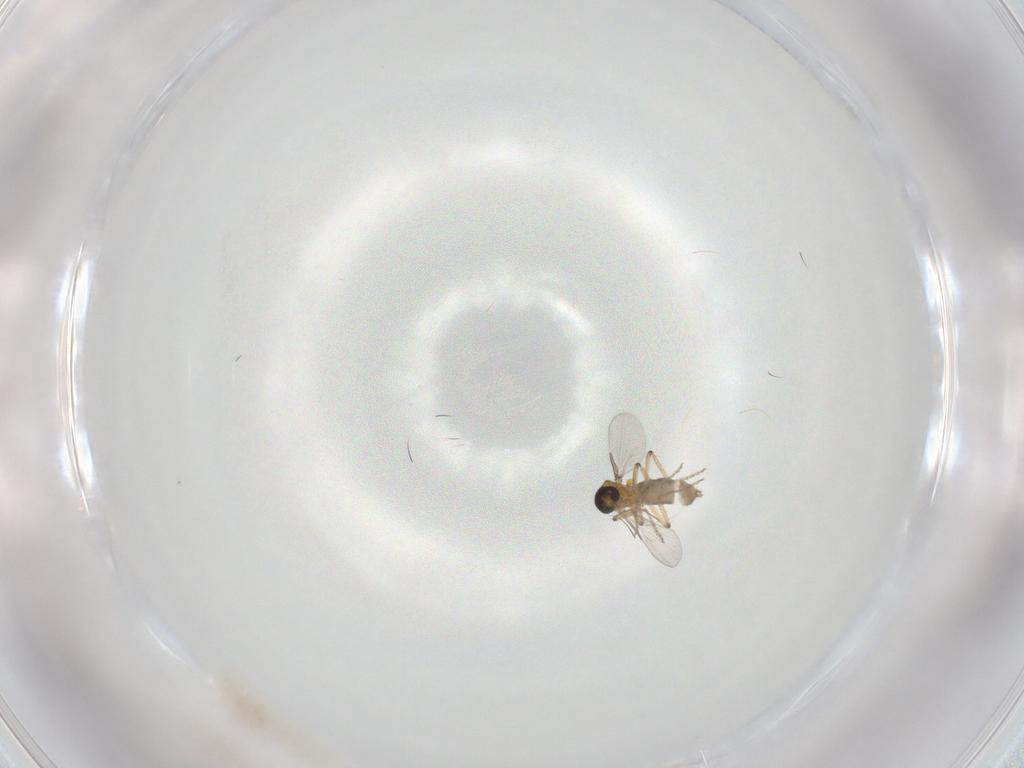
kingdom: Animalia
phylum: Arthropoda
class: Insecta
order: Diptera
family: Ceratopogonidae
